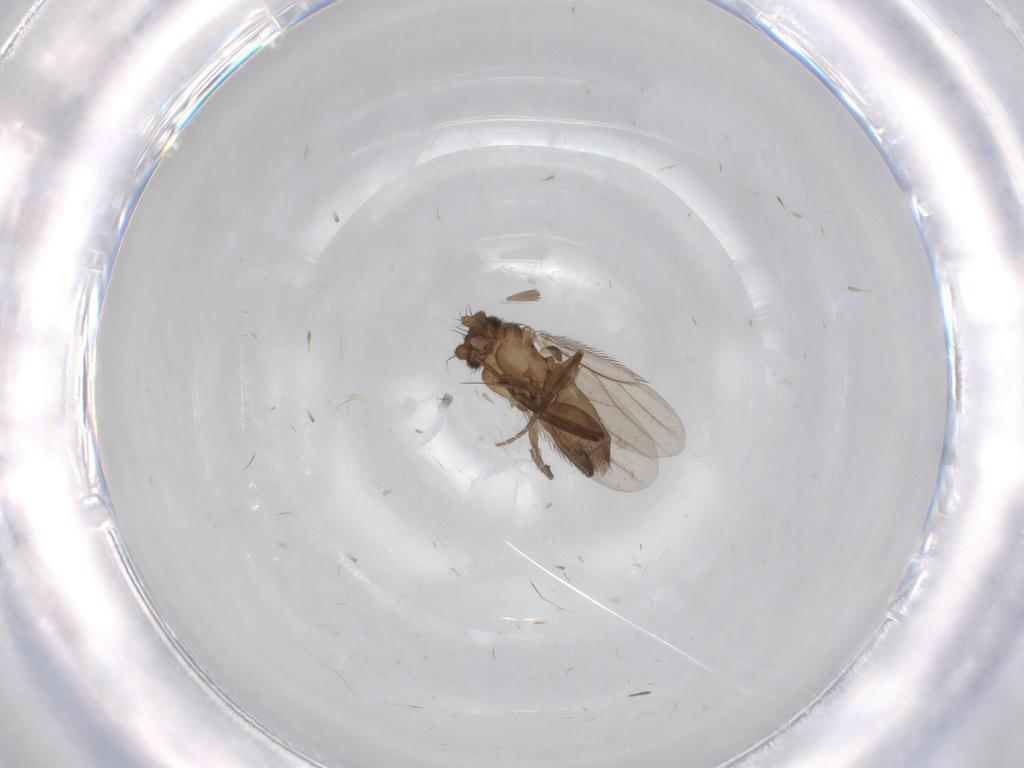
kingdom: Animalia
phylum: Arthropoda
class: Insecta
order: Diptera
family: Phoridae
